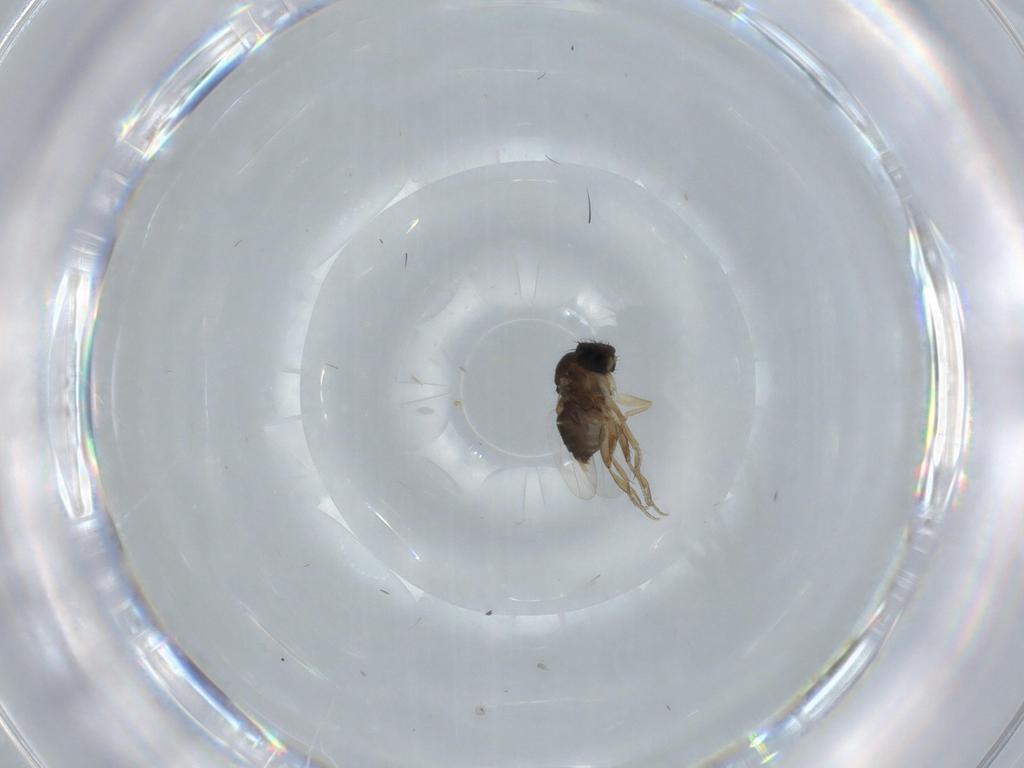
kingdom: Animalia
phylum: Arthropoda
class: Insecta
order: Diptera
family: Phoridae
